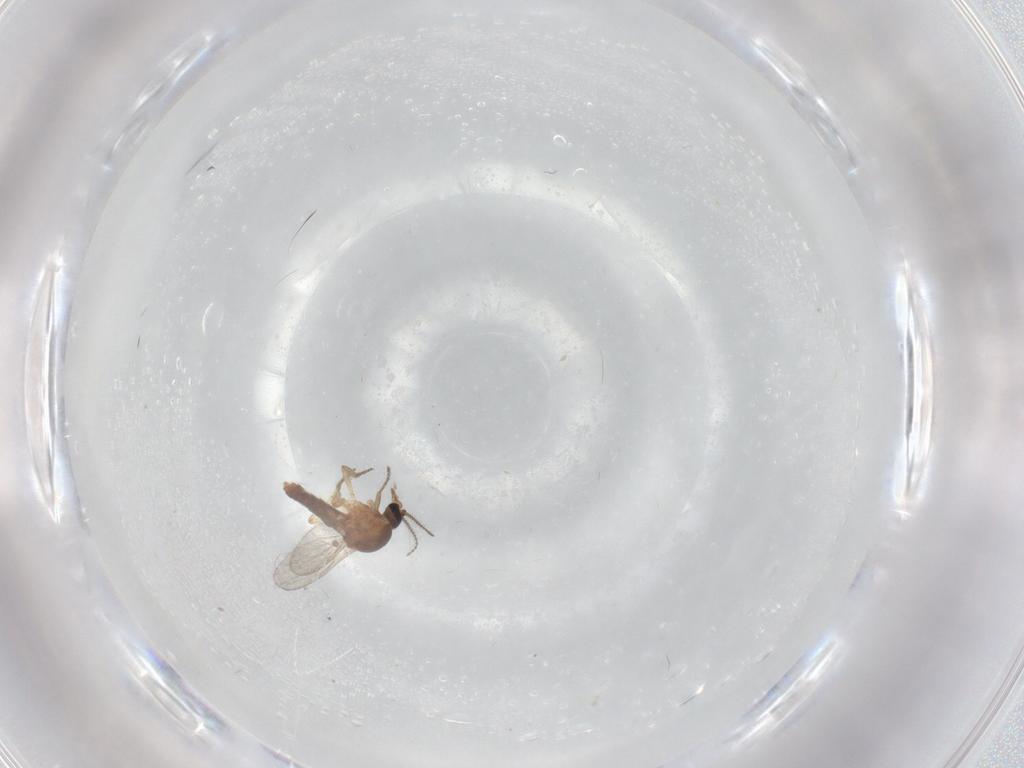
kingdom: Animalia
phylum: Arthropoda
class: Insecta
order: Diptera
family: Ceratopogonidae
